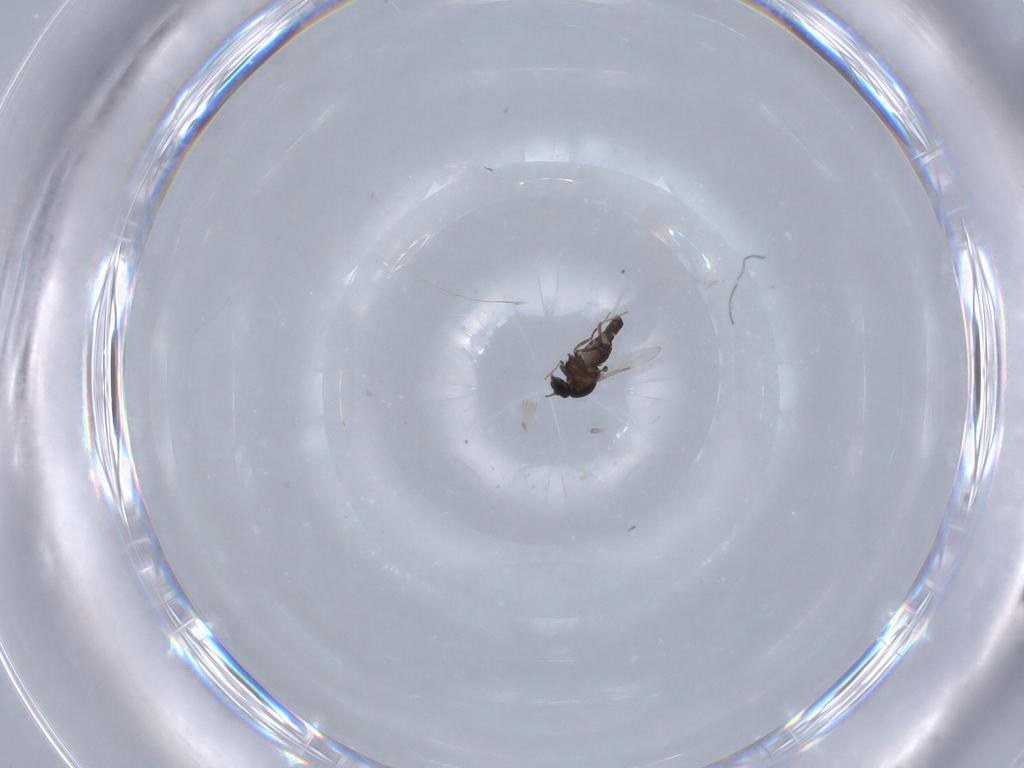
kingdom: Animalia
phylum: Arthropoda
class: Insecta
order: Diptera
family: Ceratopogonidae
